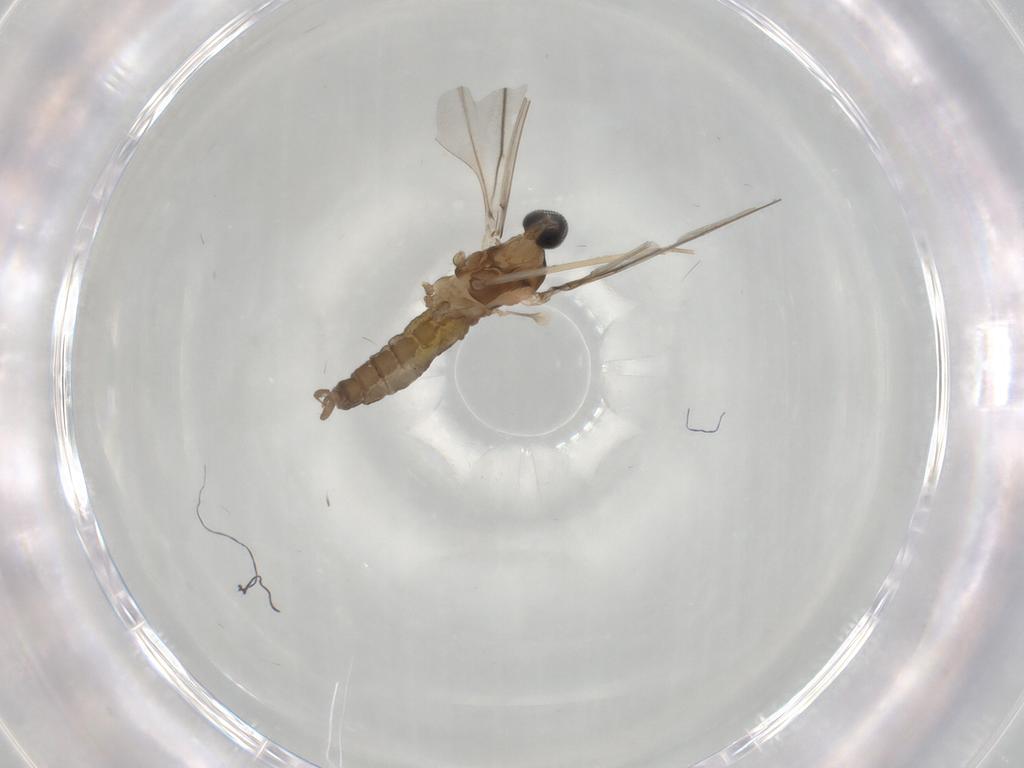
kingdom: Animalia
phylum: Arthropoda
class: Insecta
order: Diptera
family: Cecidomyiidae
